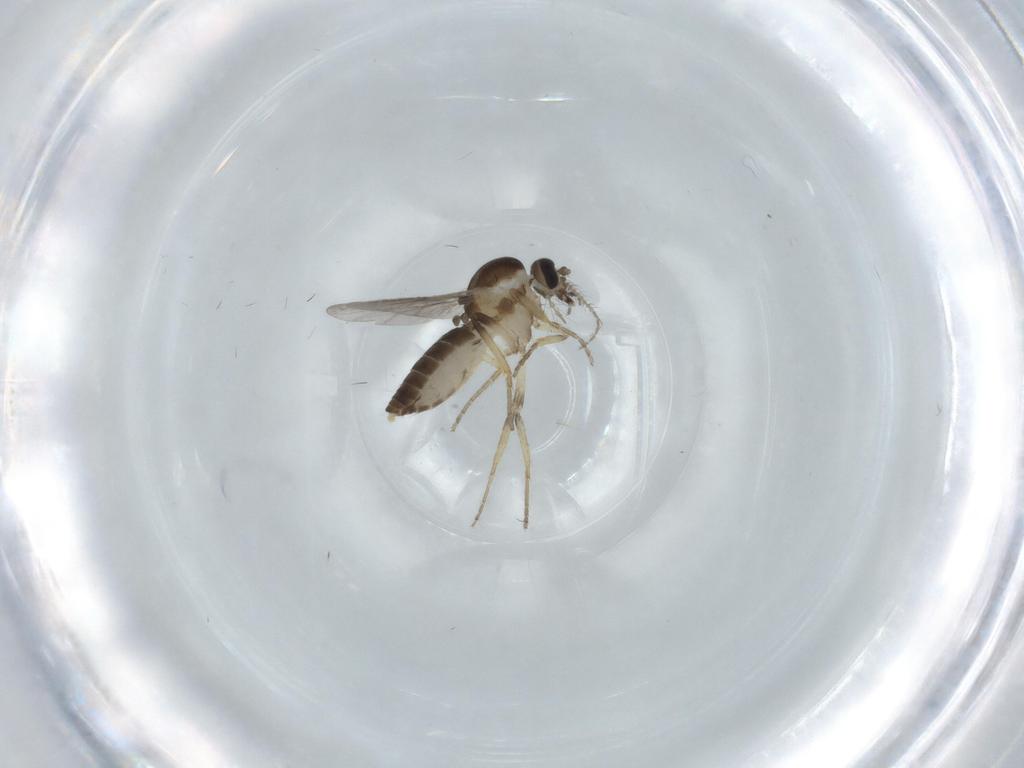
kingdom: Animalia
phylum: Arthropoda
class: Insecta
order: Diptera
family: Ceratopogonidae
